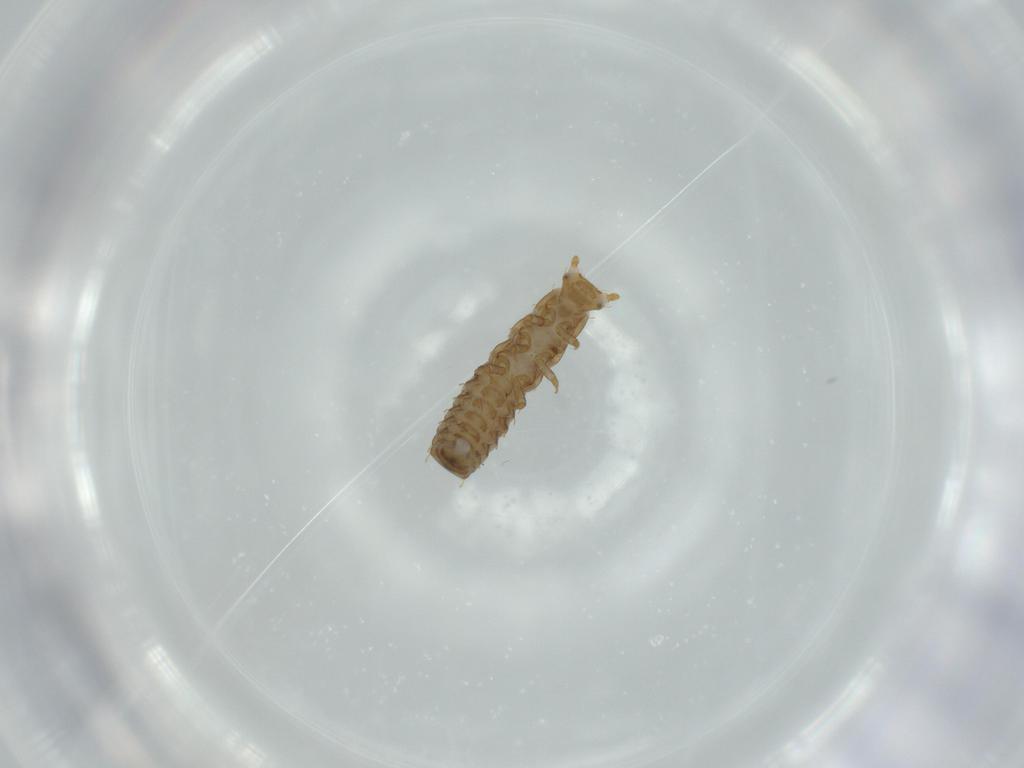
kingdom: Animalia
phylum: Arthropoda
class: Insecta
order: Coleoptera
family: Lycidae
